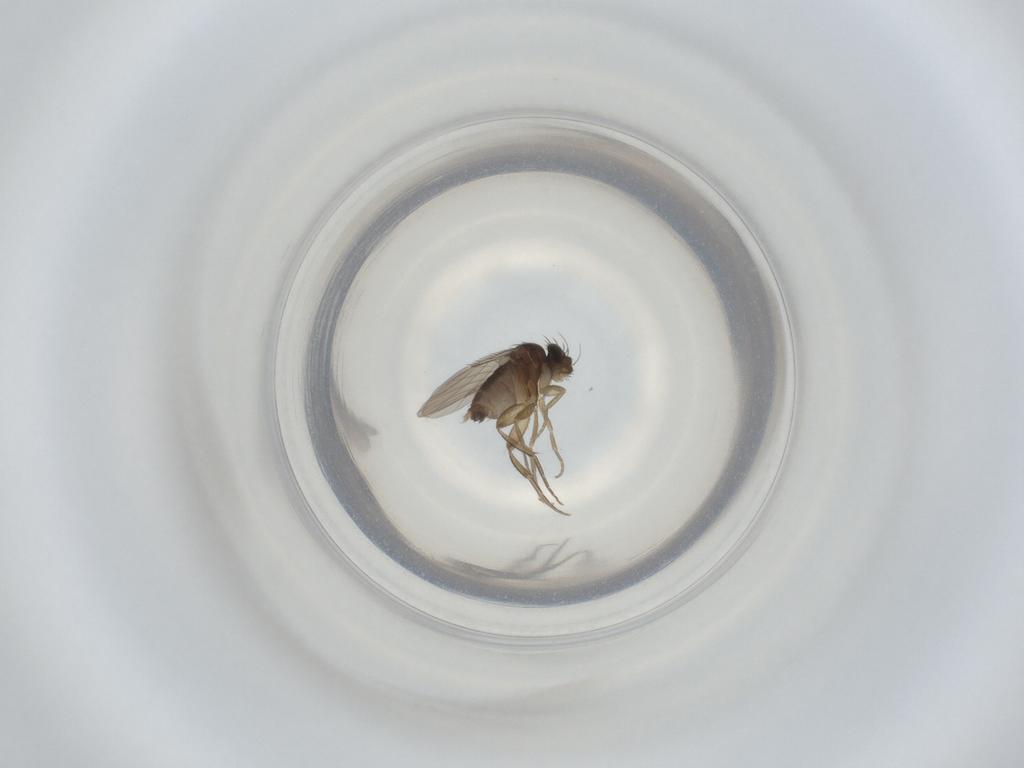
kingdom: Animalia
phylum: Arthropoda
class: Insecta
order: Diptera
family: Phoridae
